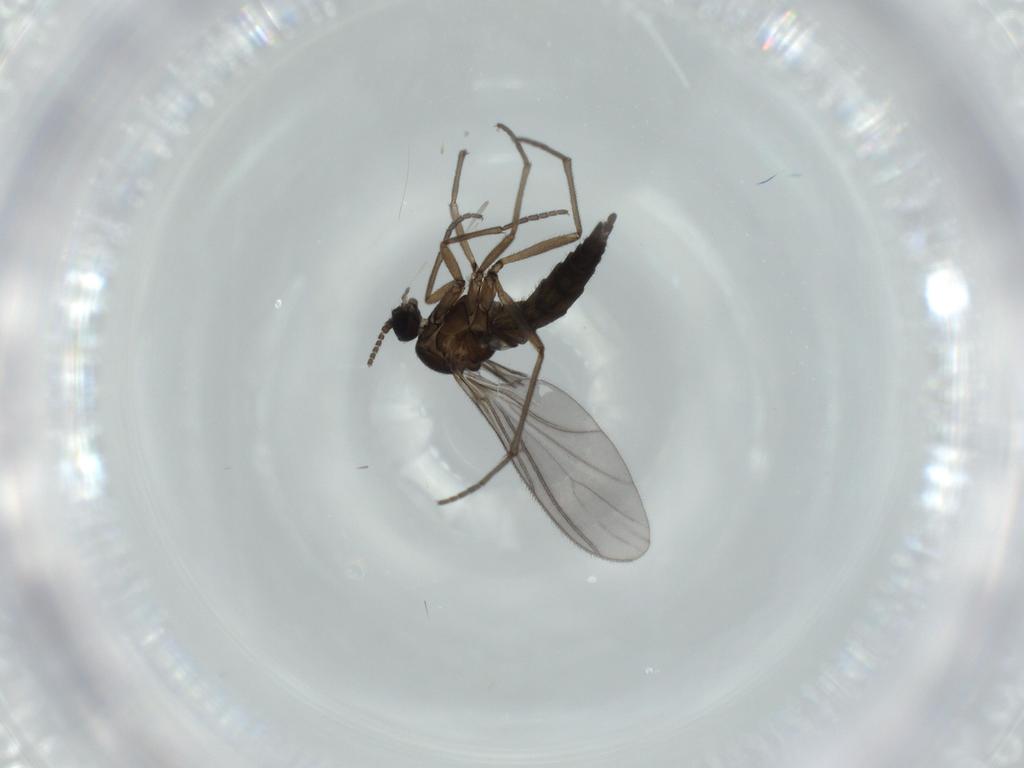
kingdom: Animalia
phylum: Arthropoda
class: Insecta
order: Diptera
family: Sciaridae
